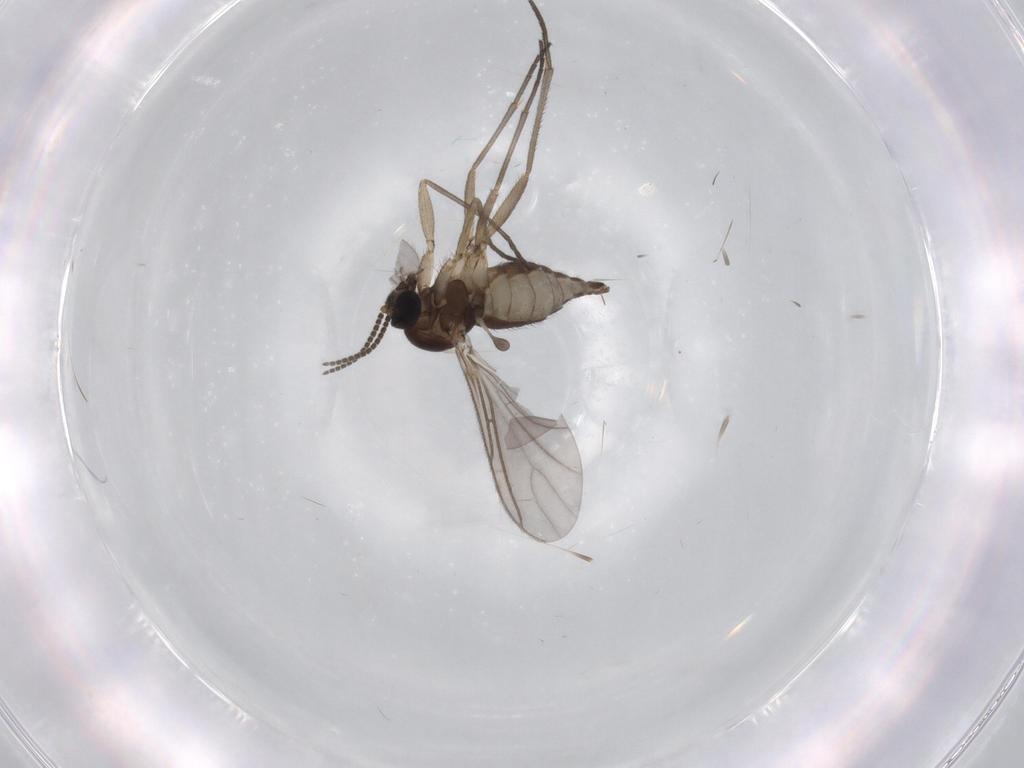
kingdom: Animalia
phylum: Arthropoda
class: Insecta
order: Diptera
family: Sciaridae
